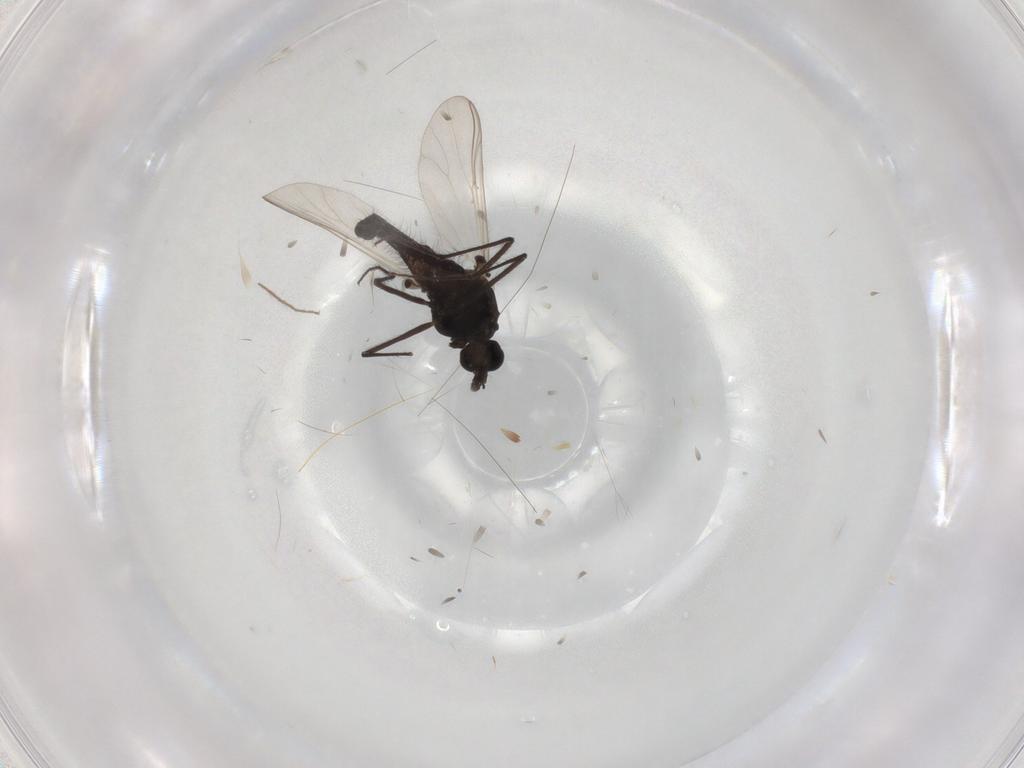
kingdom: Animalia
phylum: Arthropoda
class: Insecta
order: Diptera
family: Chironomidae
